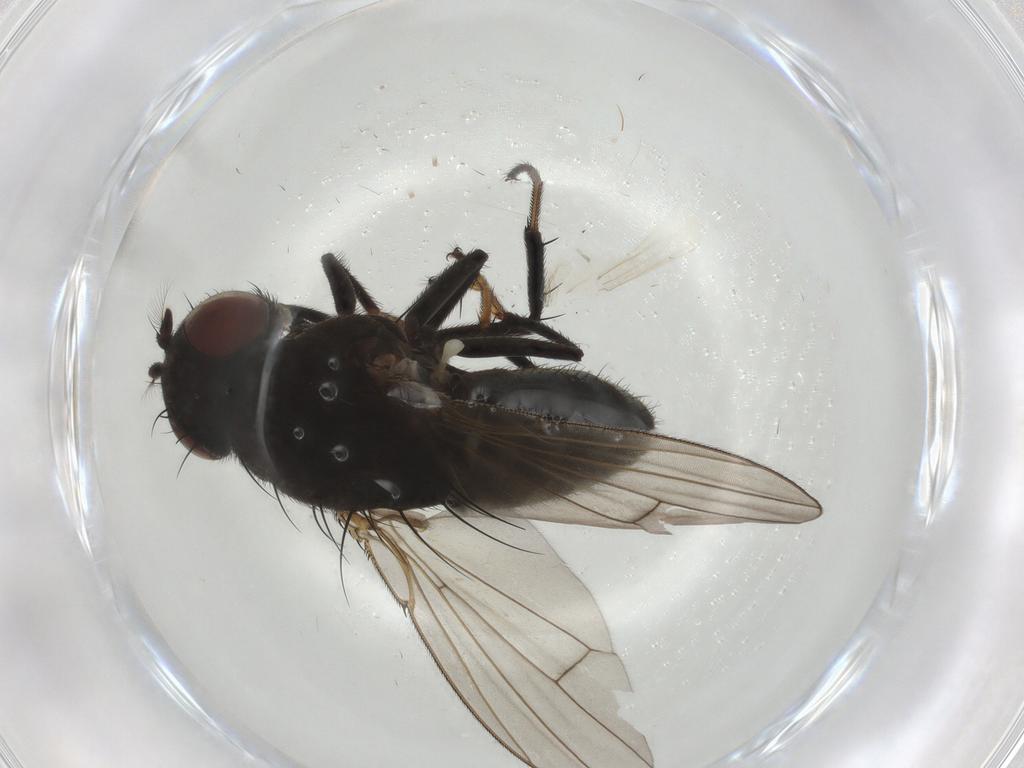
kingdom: Animalia
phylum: Arthropoda
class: Insecta
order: Diptera
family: Ephydridae
